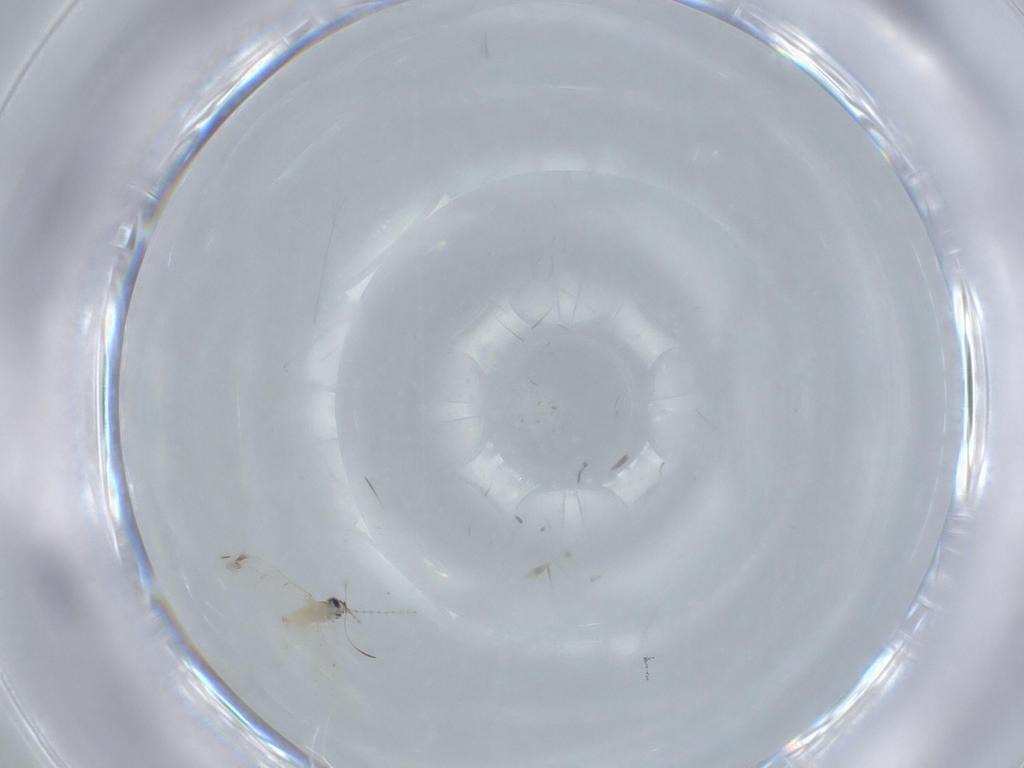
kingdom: Animalia
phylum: Arthropoda
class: Insecta
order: Diptera
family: Cecidomyiidae
